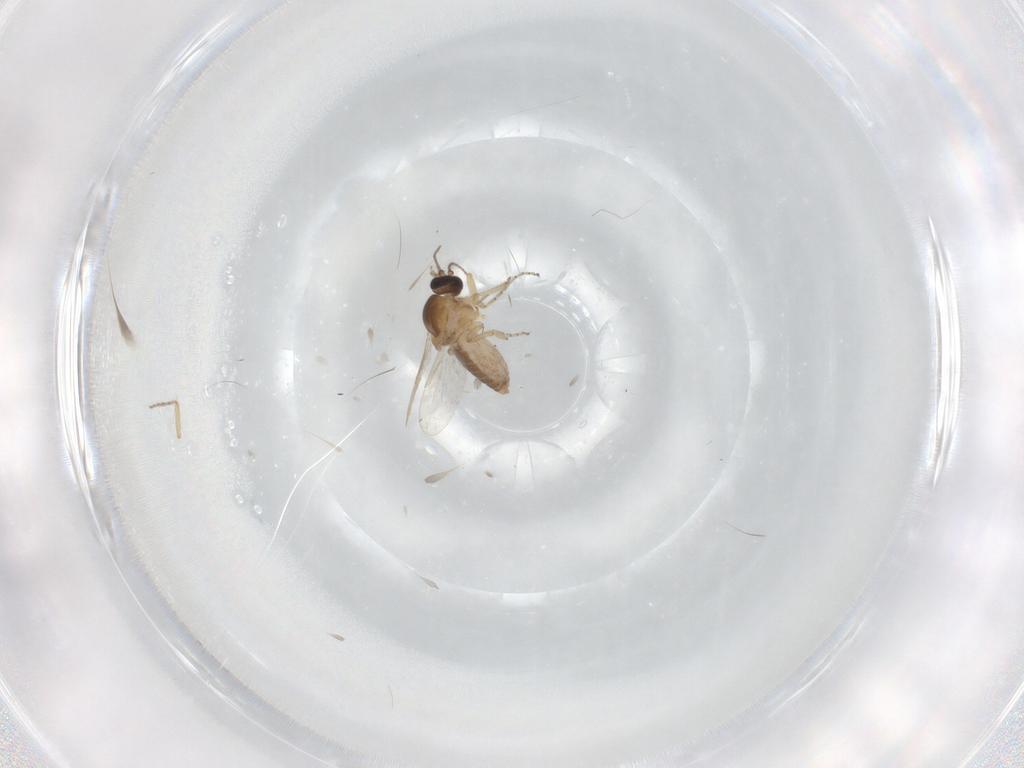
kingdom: Animalia
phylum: Arthropoda
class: Insecta
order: Diptera
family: Ceratopogonidae
